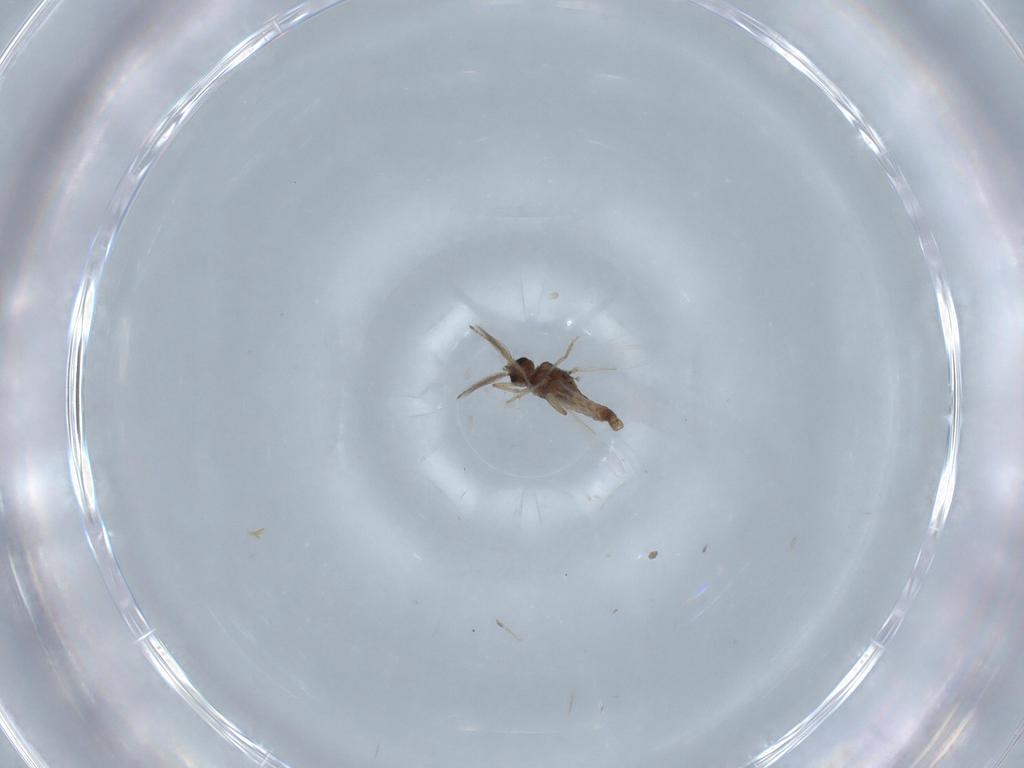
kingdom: Animalia
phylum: Arthropoda
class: Insecta
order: Diptera
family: Ceratopogonidae
